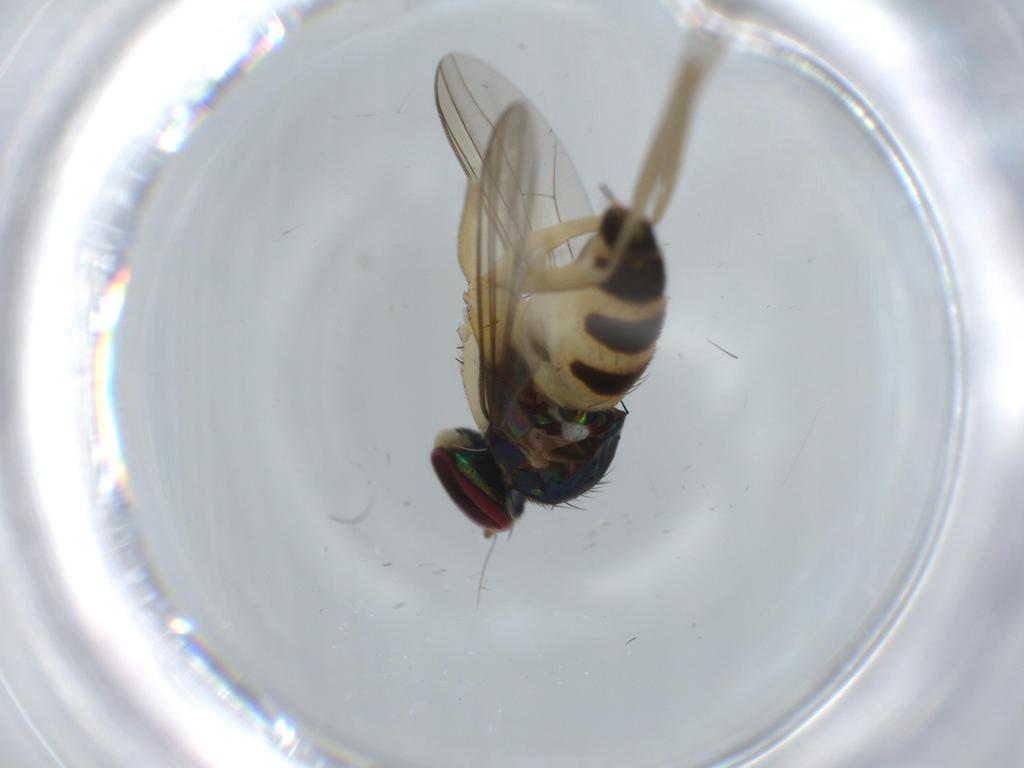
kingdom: Animalia
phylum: Arthropoda
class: Insecta
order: Diptera
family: Dolichopodidae
